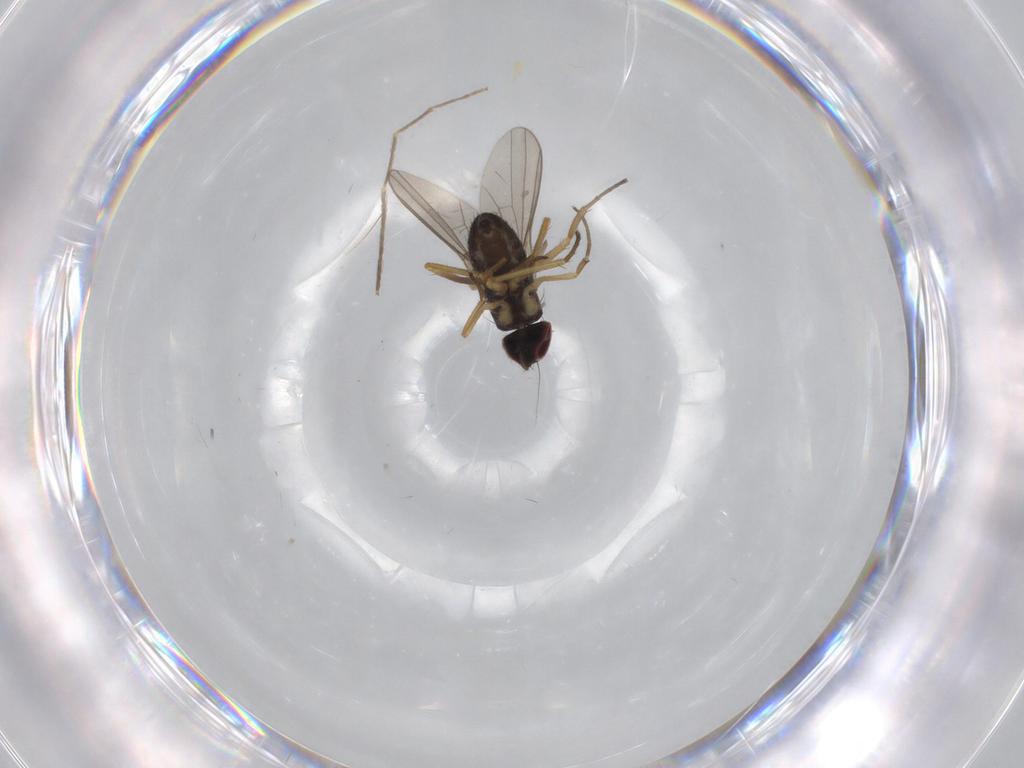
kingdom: Animalia
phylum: Arthropoda
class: Insecta
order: Diptera
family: Dolichopodidae
